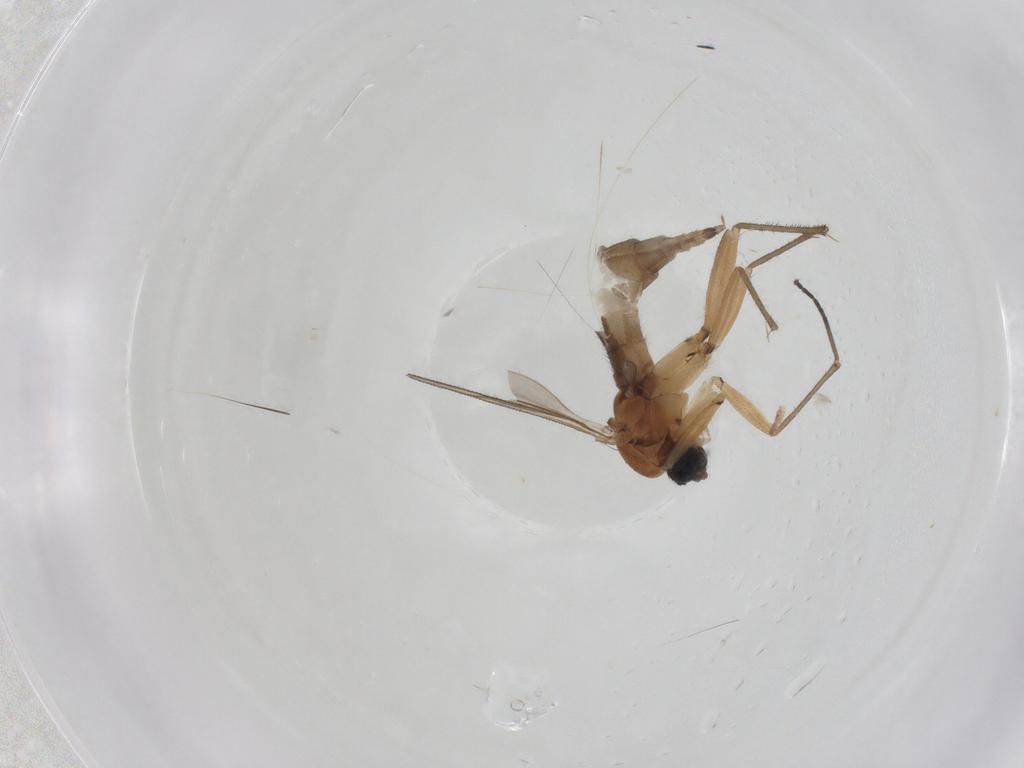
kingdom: Animalia
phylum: Arthropoda
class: Insecta
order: Diptera
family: Sciaridae
